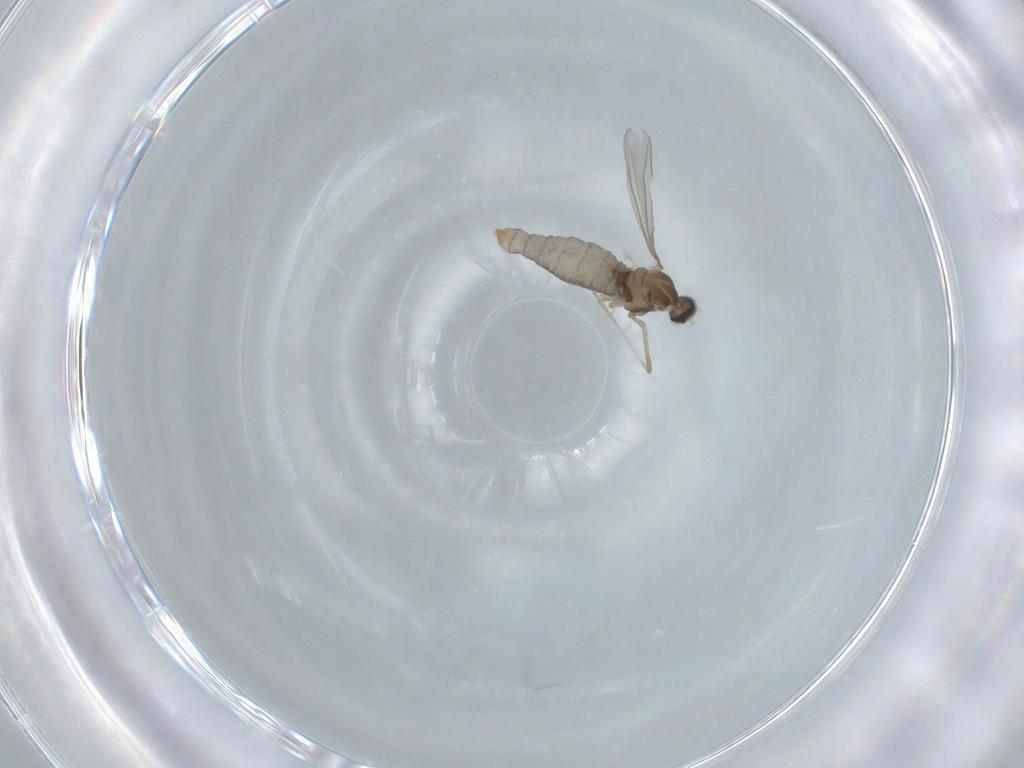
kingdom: Animalia
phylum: Arthropoda
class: Insecta
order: Diptera
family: Cecidomyiidae
